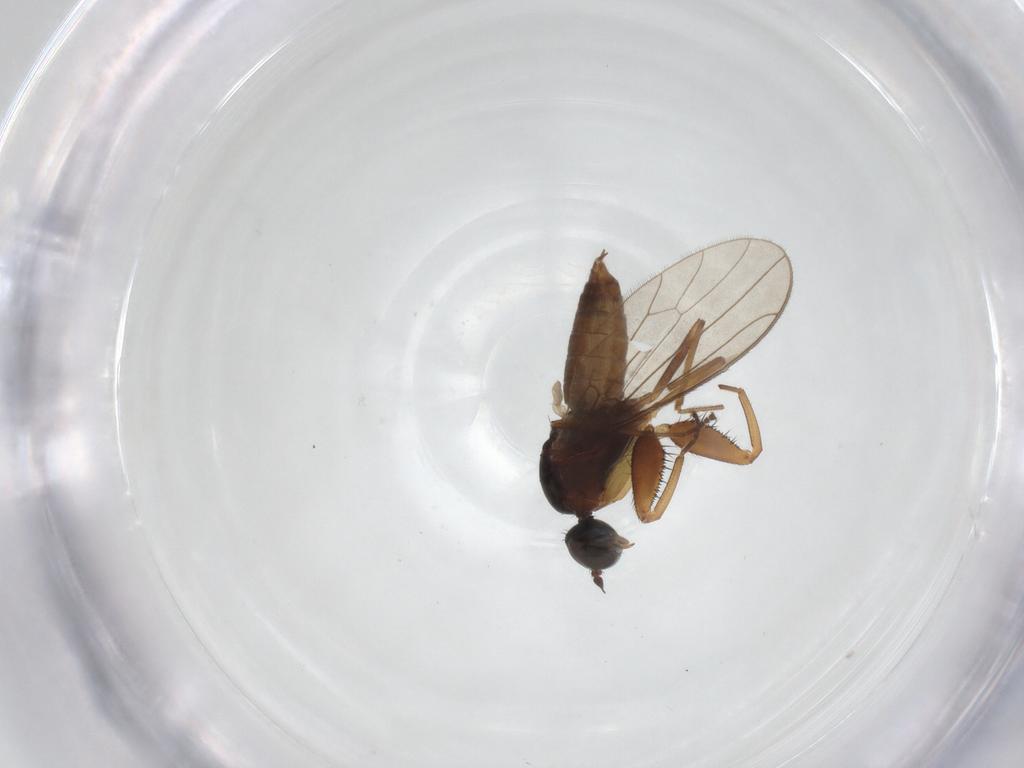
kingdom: Animalia
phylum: Arthropoda
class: Insecta
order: Diptera
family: Empididae
